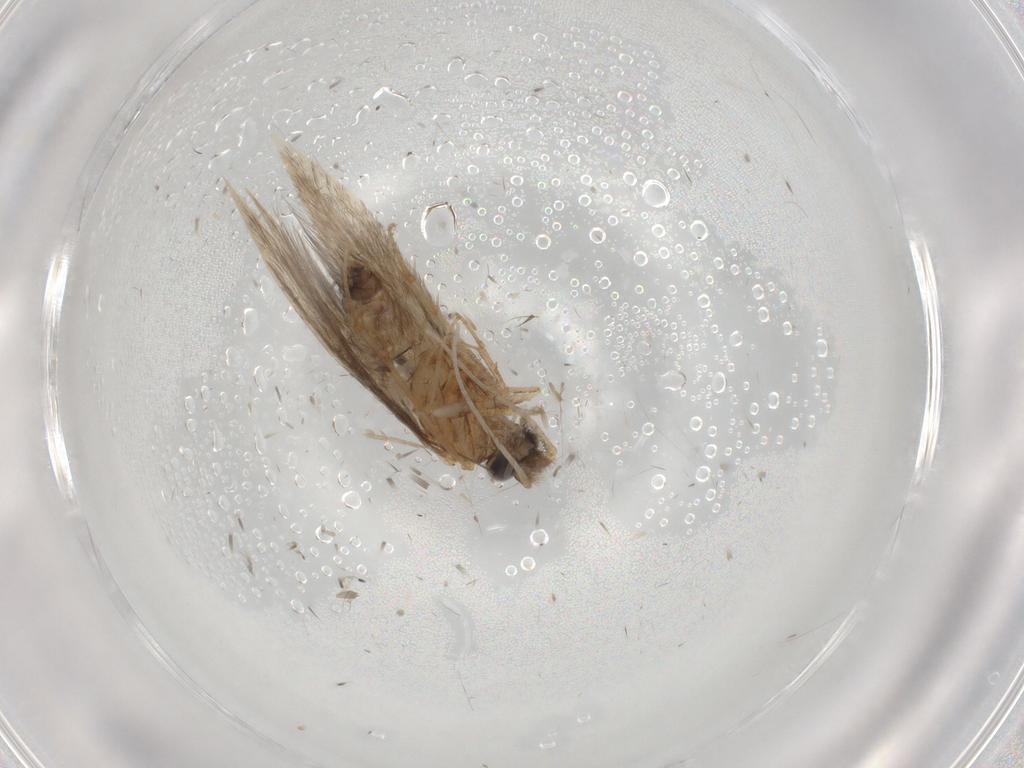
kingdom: Animalia
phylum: Arthropoda
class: Insecta
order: Trichoptera
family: Hydroptilidae
